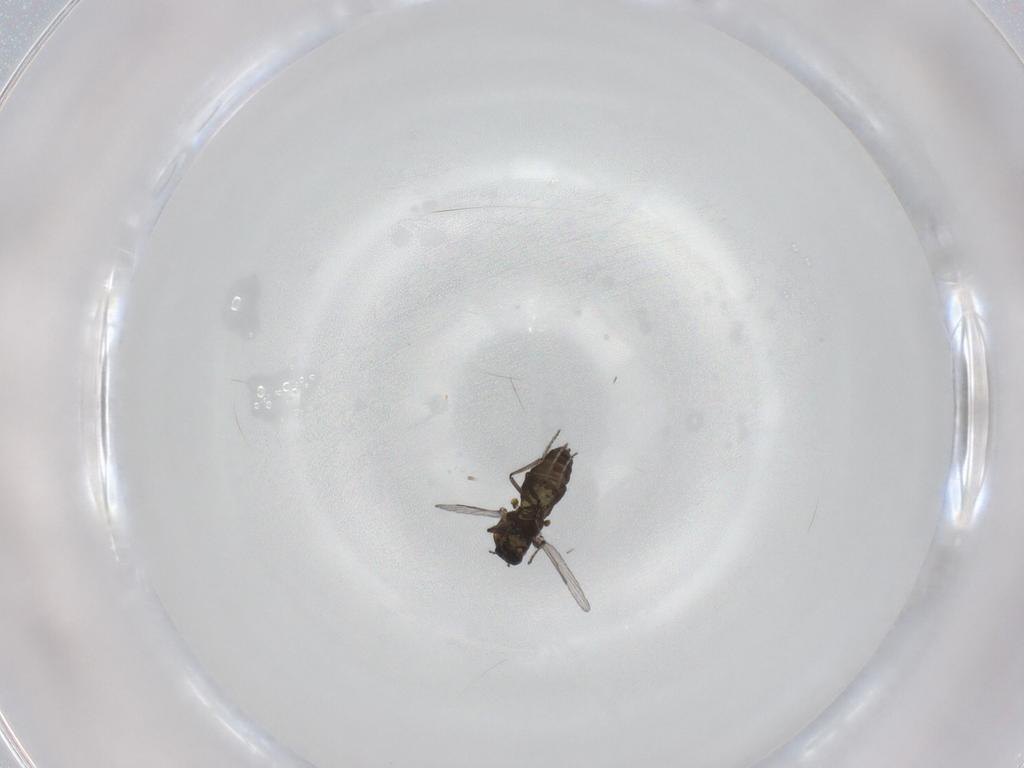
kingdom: Animalia
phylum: Arthropoda
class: Insecta
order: Diptera
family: Ceratopogonidae
